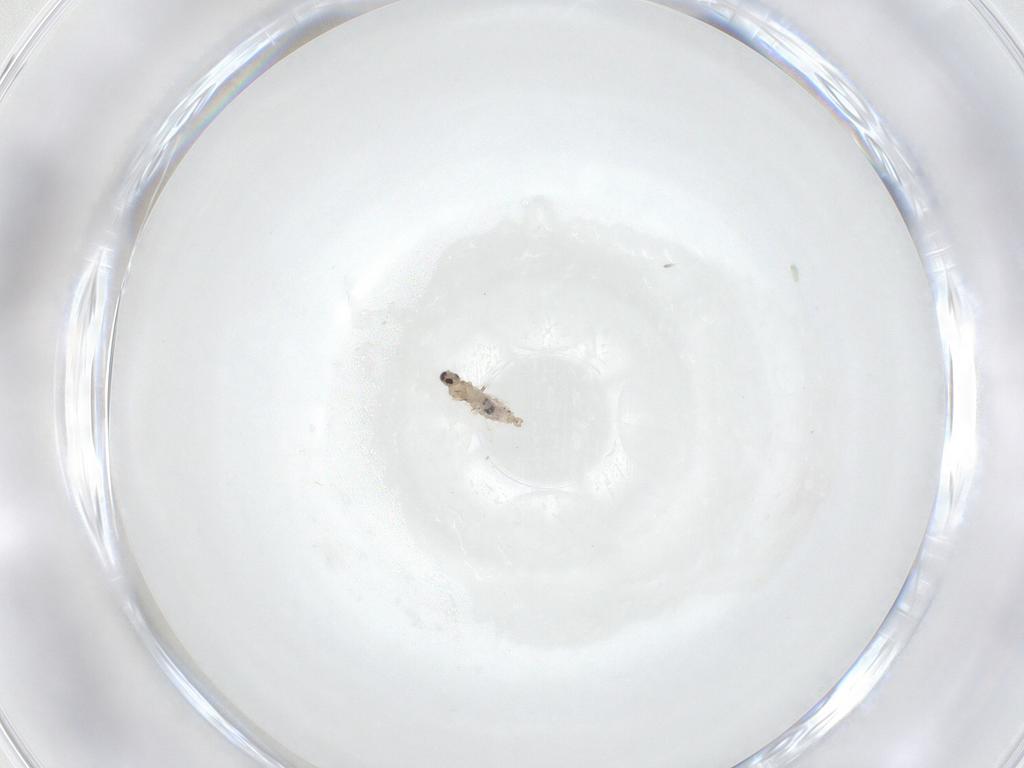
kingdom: Animalia
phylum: Arthropoda
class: Insecta
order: Diptera
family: Cecidomyiidae
